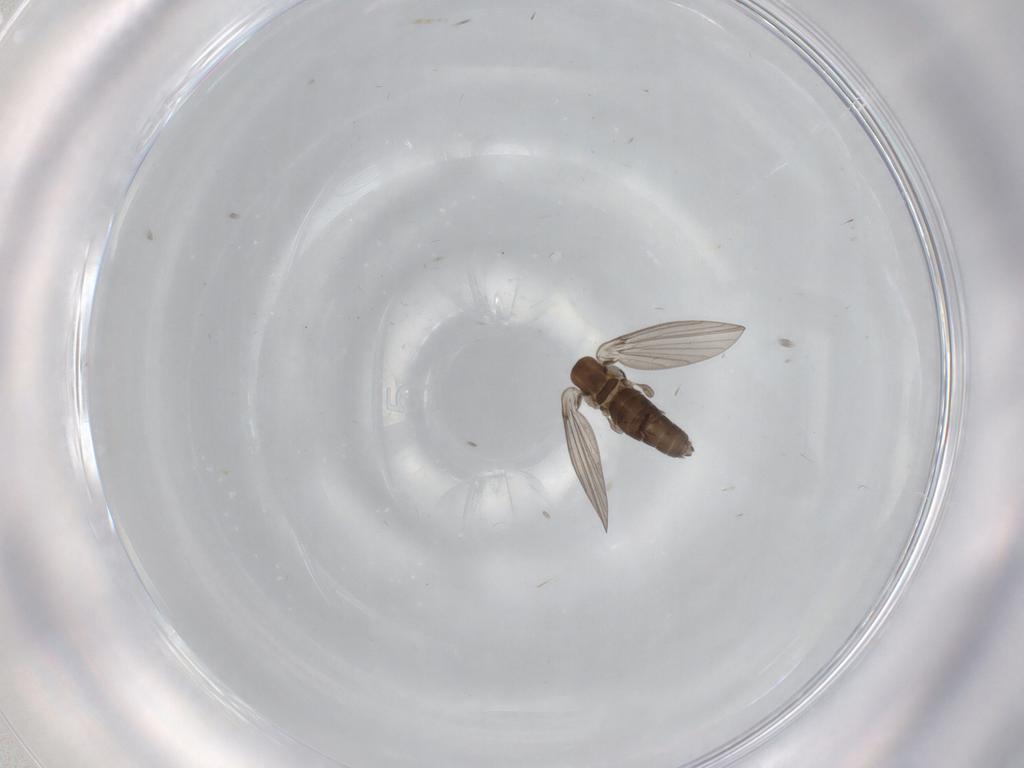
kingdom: Animalia
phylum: Arthropoda
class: Insecta
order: Diptera
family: Psychodidae
